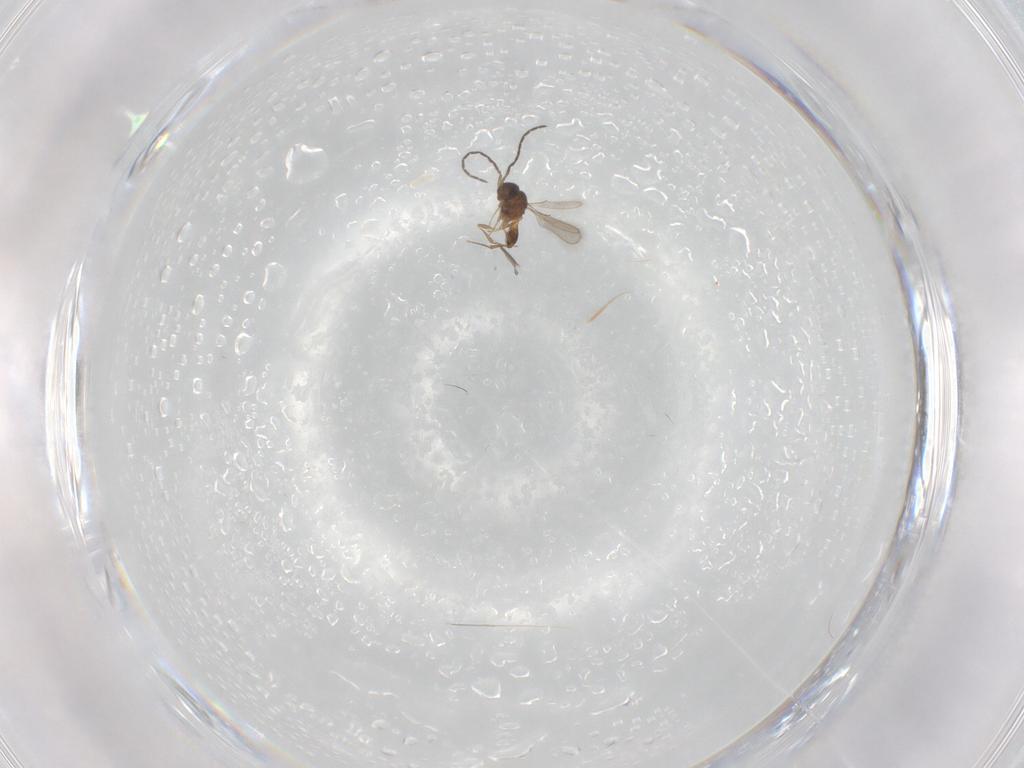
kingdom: Animalia
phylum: Arthropoda
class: Insecta
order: Hymenoptera
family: Scelionidae
